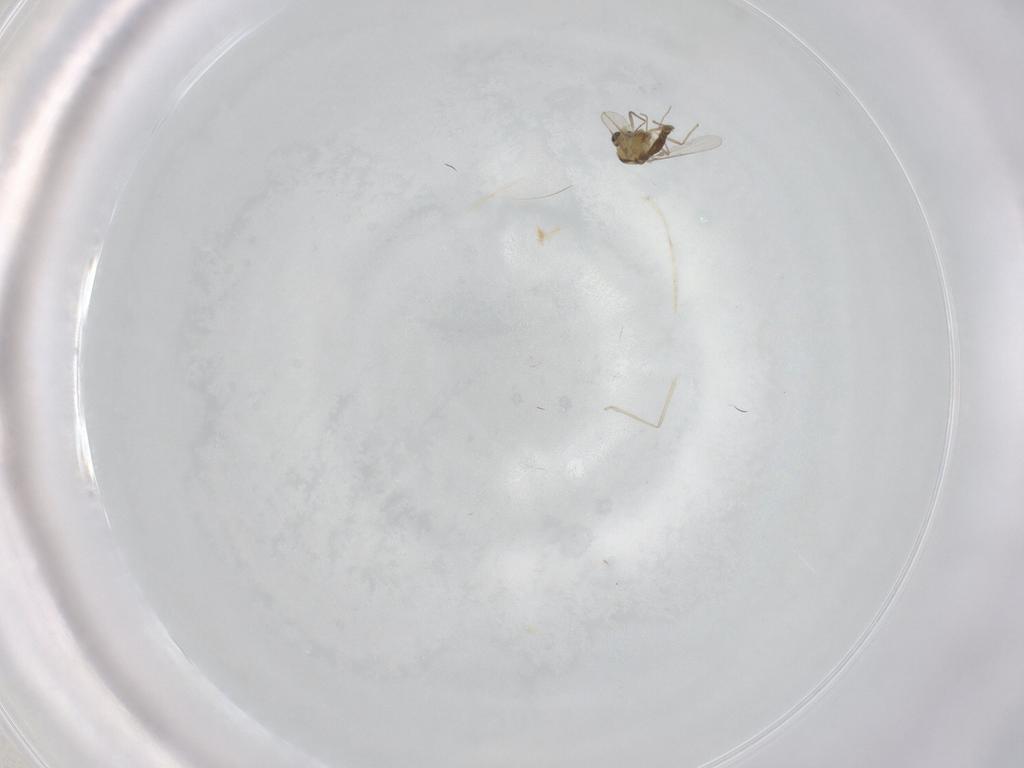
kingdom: Animalia
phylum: Arthropoda
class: Insecta
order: Diptera
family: Chironomidae
